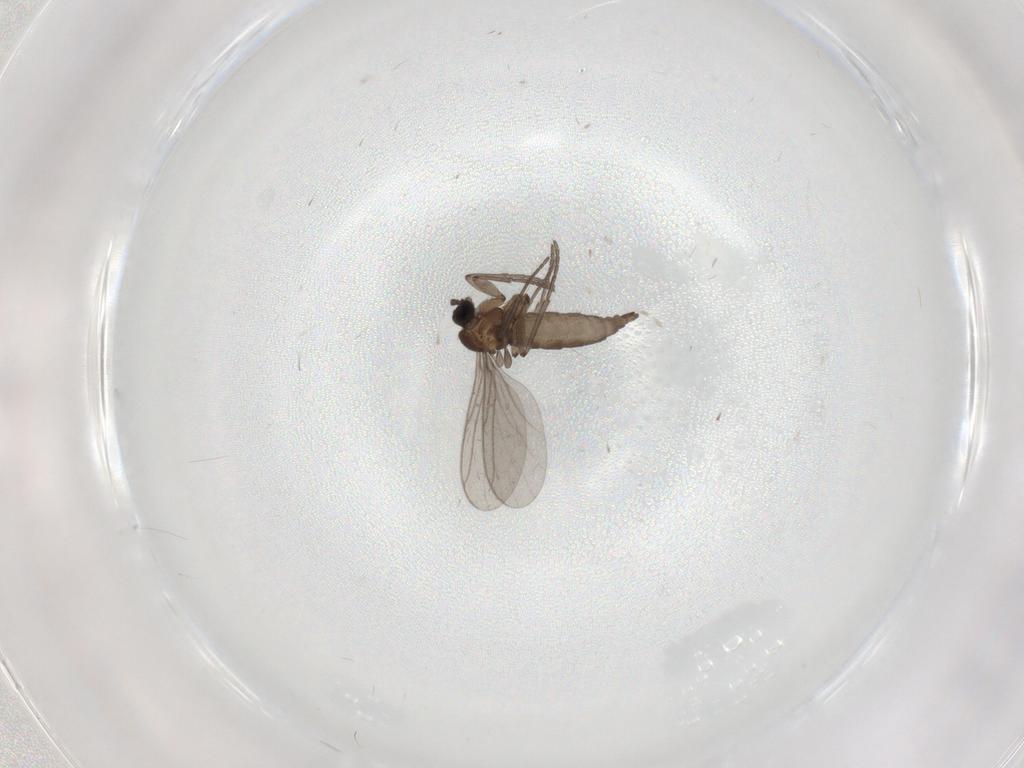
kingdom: Animalia
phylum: Arthropoda
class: Insecta
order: Diptera
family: Sciaridae
